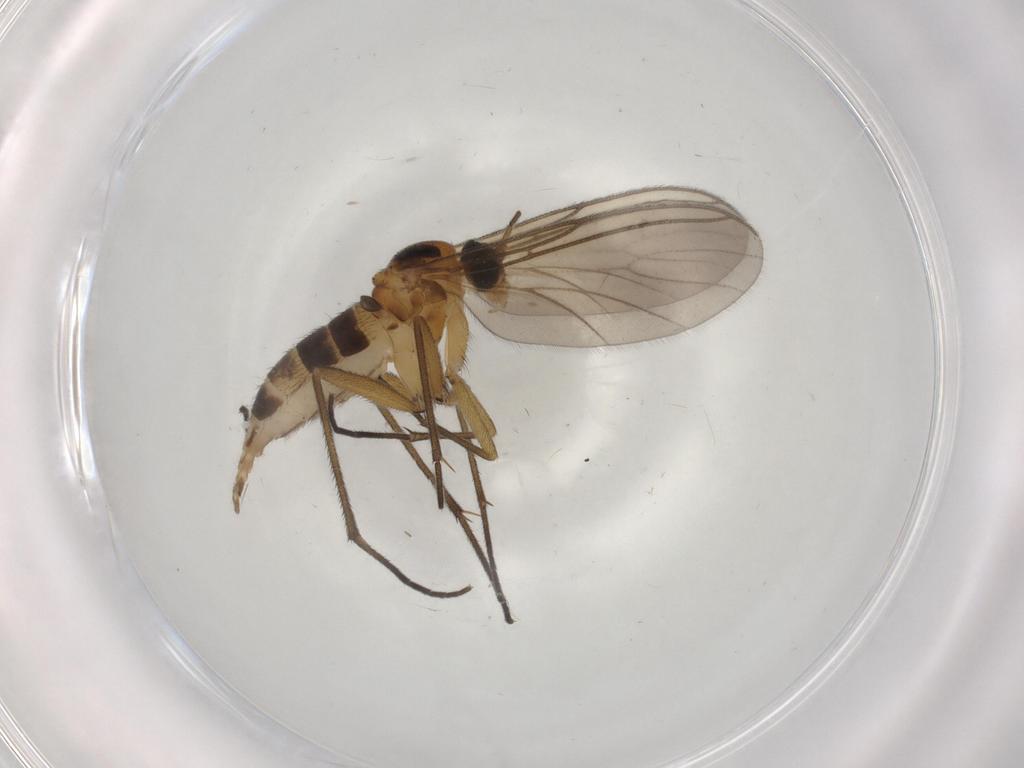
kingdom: Animalia
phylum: Arthropoda
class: Insecta
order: Diptera
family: Sciaridae
